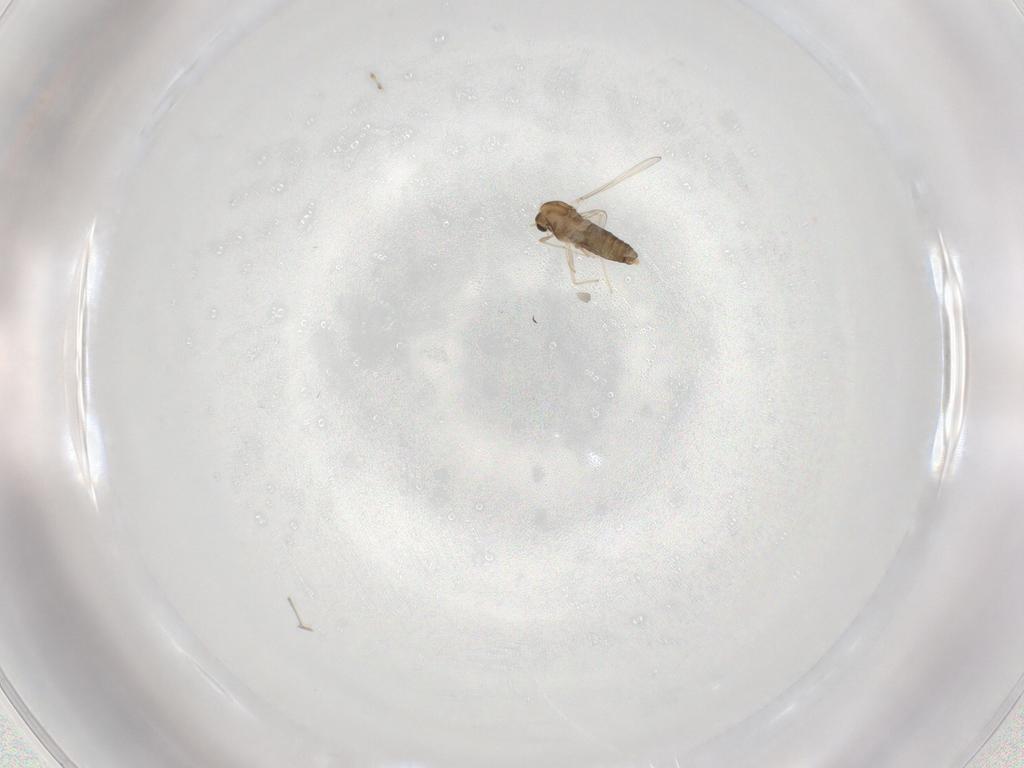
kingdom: Animalia
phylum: Arthropoda
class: Insecta
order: Diptera
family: Chironomidae
